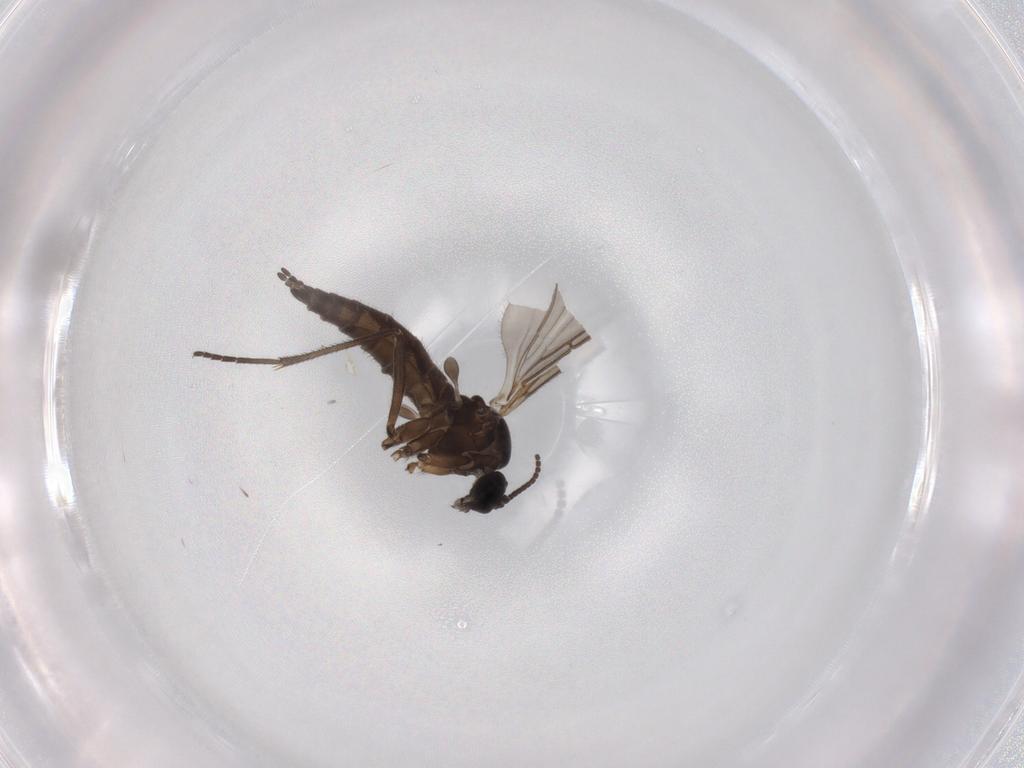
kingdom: Animalia
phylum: Arthropoda
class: Insecta
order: Diptera
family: Sciaridae
